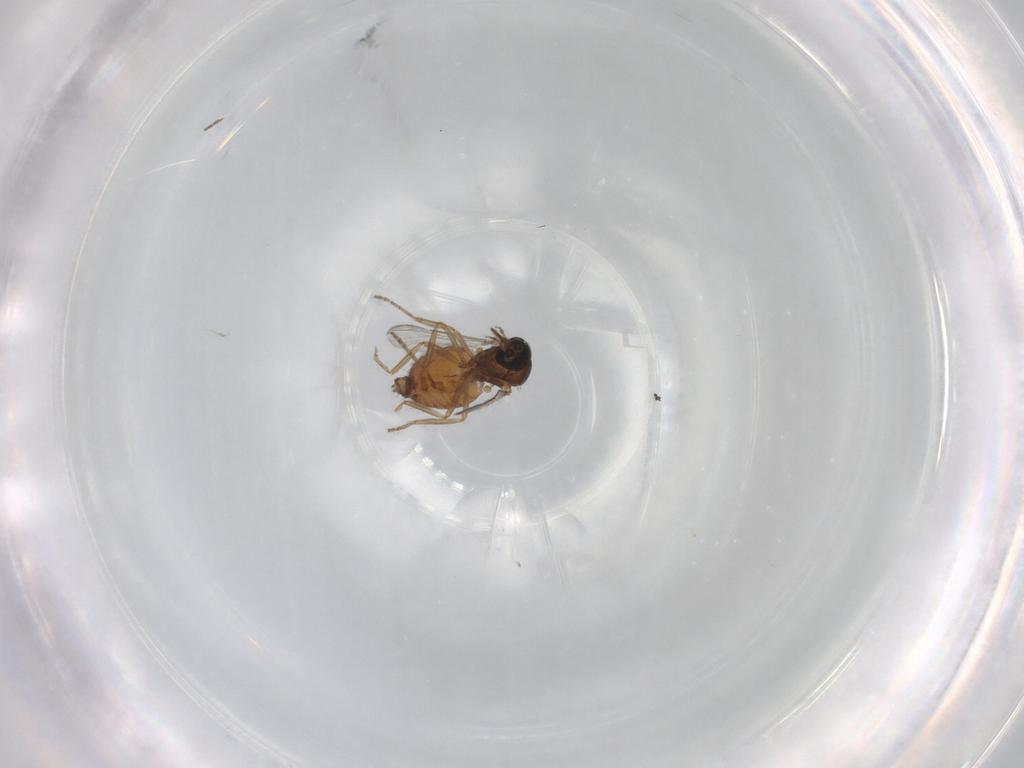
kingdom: Animalia
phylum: Arthropoda
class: Insecta
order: Diptera
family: Ceratopogonidae
